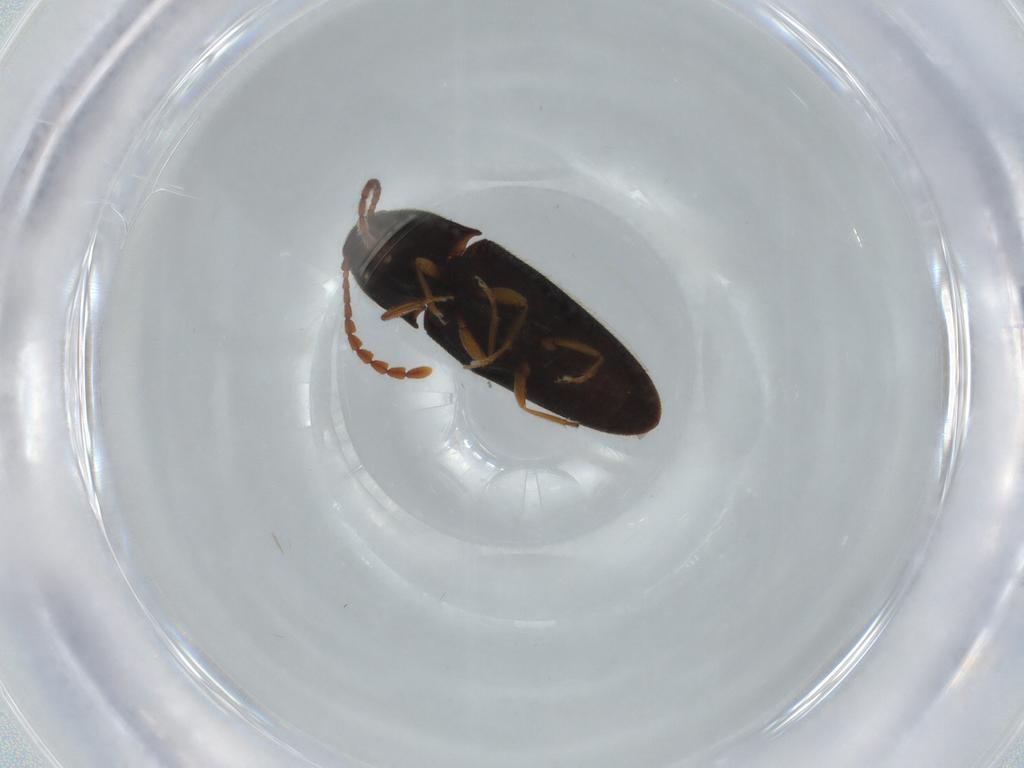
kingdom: Animalia
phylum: Arthropoda
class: Insecta
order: Coleoptera
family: Elateridae
